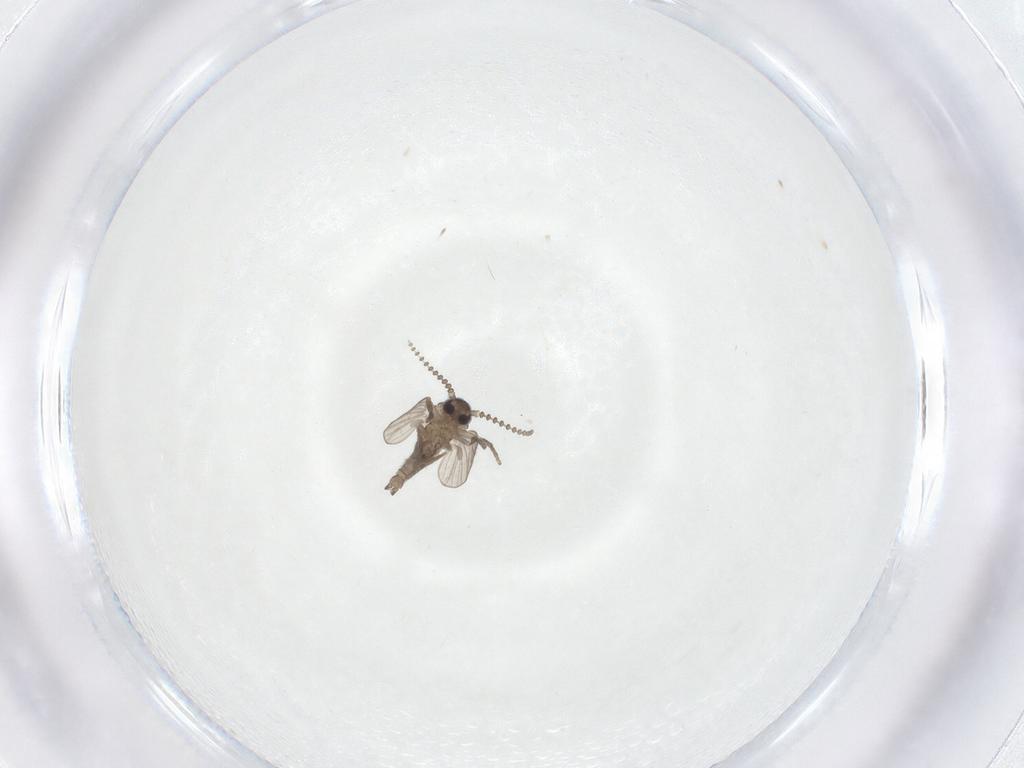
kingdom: Animalia
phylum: Arthropoda
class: Insecta
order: Diptera
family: Psychodidae
